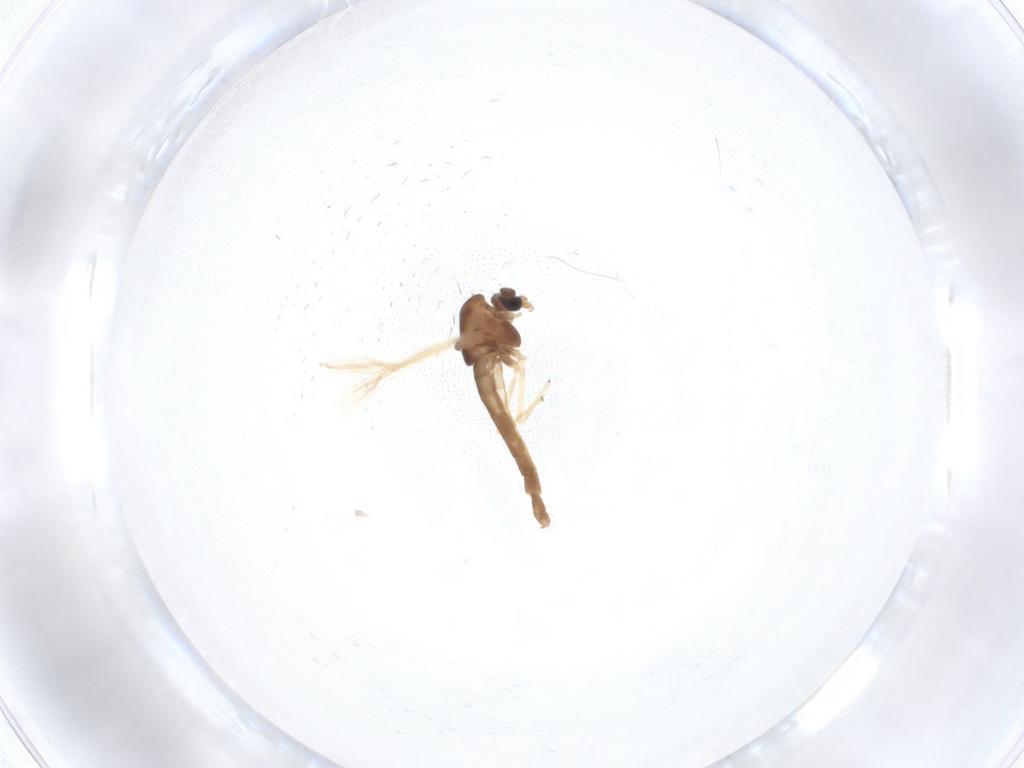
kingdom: Animalia
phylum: Arthropoda
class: Insecta
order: Diptera
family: Chironomidae
